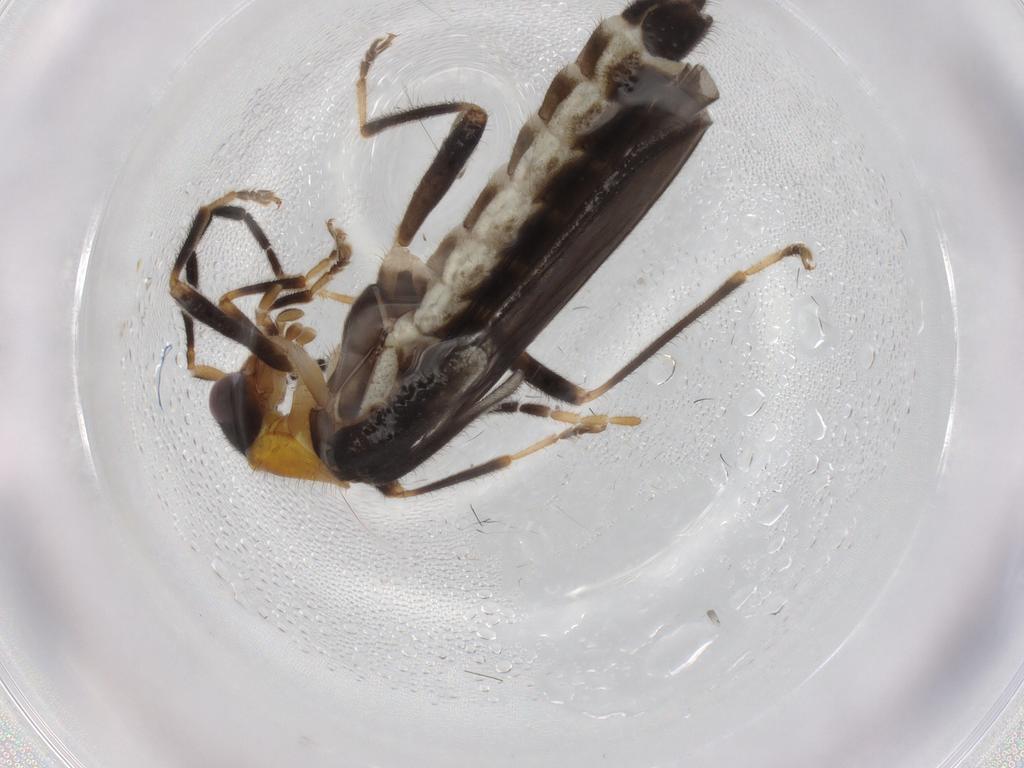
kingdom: Animalia
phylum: Arthropoda
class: Insecta
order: Coleoptera
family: Cantharidae
